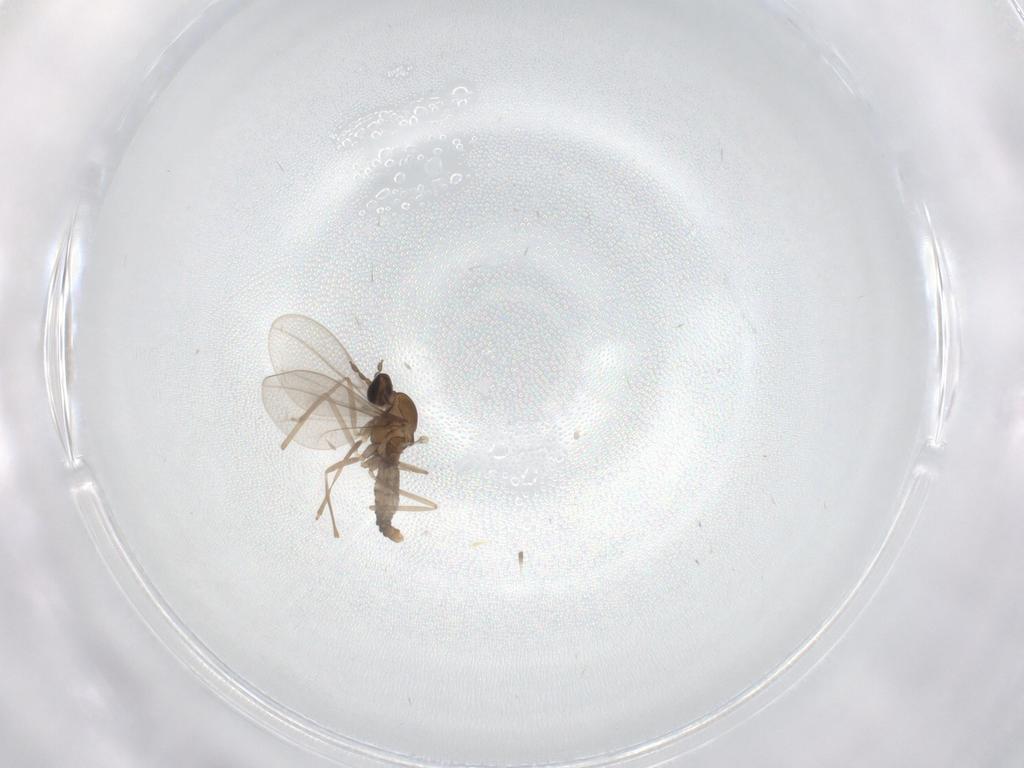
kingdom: Animalia
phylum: Arthropoda
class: Insecta
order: Diptera
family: Cecidomyiidae
